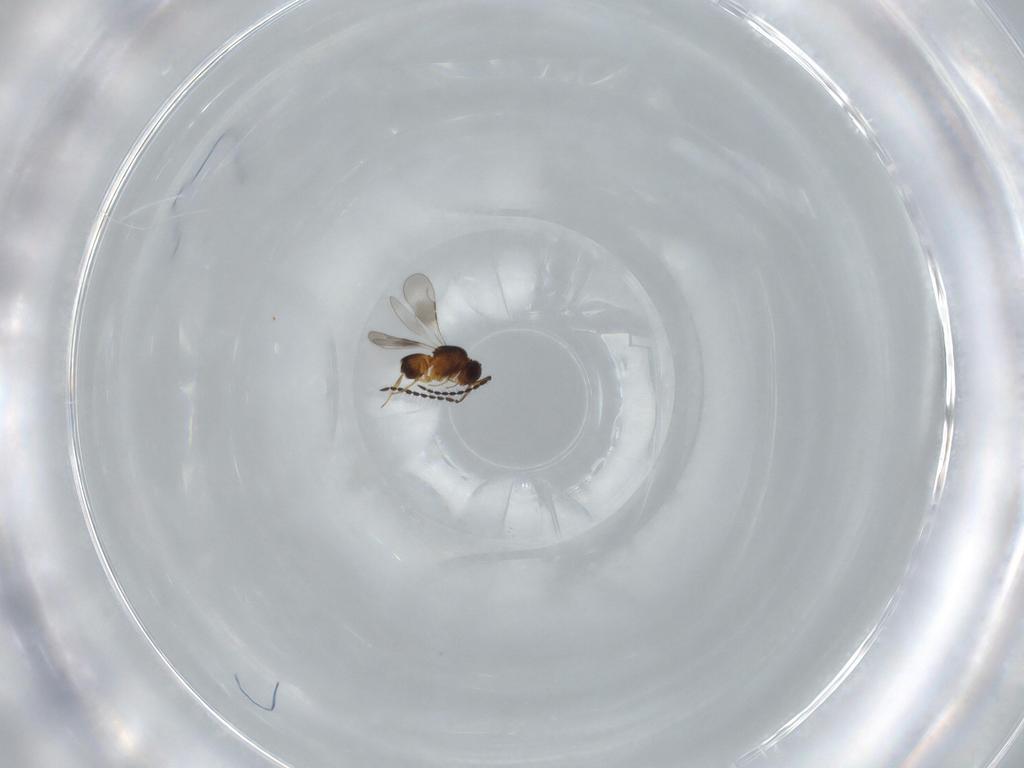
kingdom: Animalia
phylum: Arthropoda
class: Insecta
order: Hymenoptera
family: Ceraphronidae
